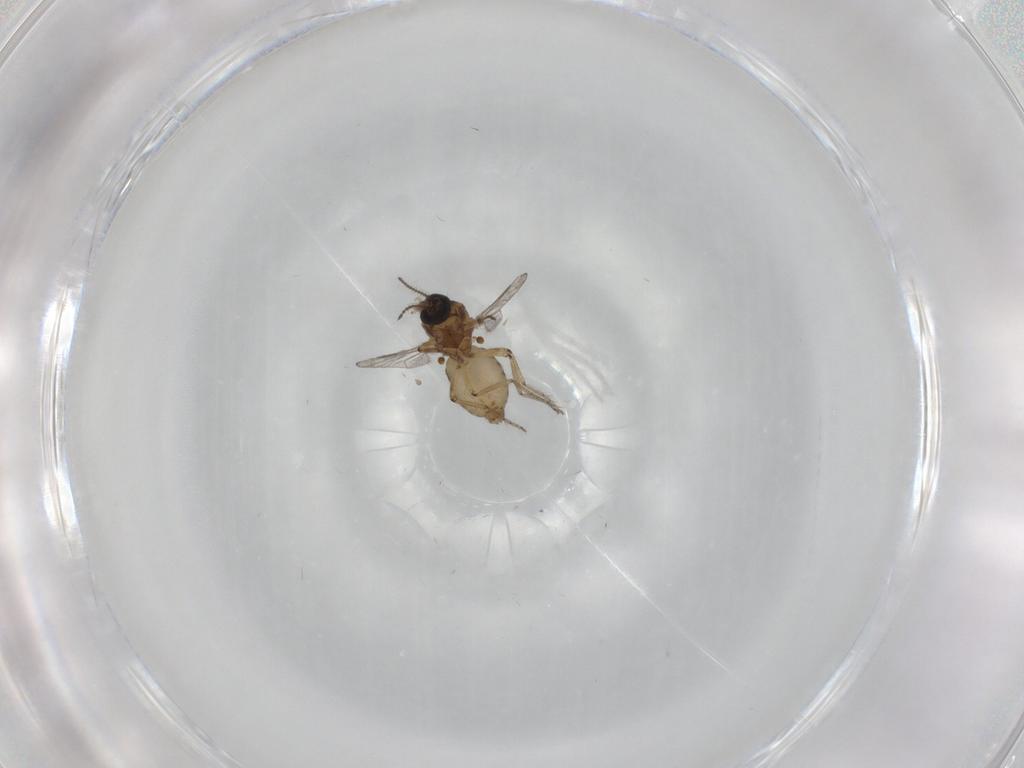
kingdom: Animalia
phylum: Arthropoda
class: Insecta
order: Diptera
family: Ceratopogonidae
